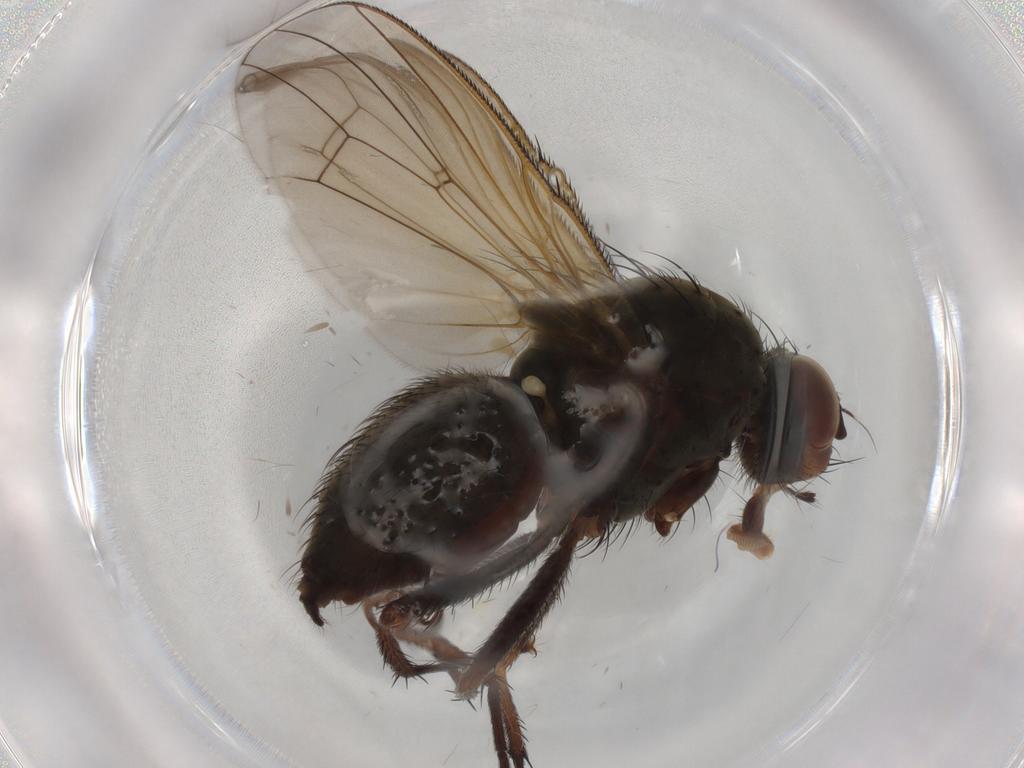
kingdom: Animalia
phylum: Arthropoda
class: Insecta
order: Diptera
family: Anthomyiidae
